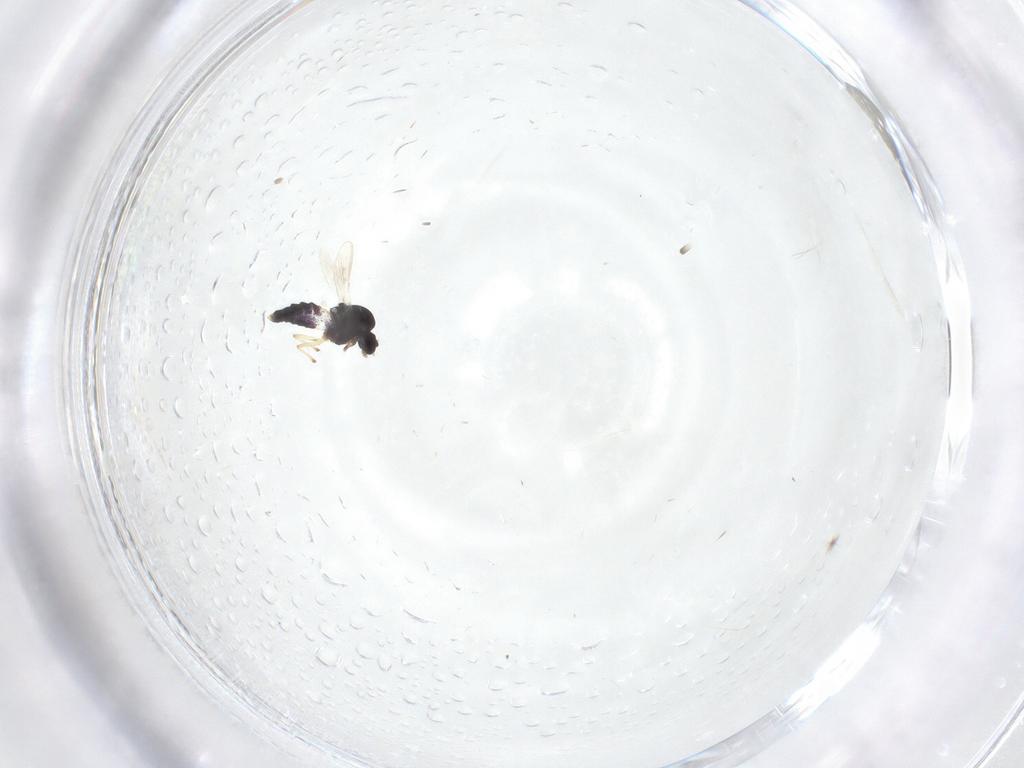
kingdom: Animalia
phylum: Arthropoda
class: Insecta
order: Diptera
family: Chironomidae
